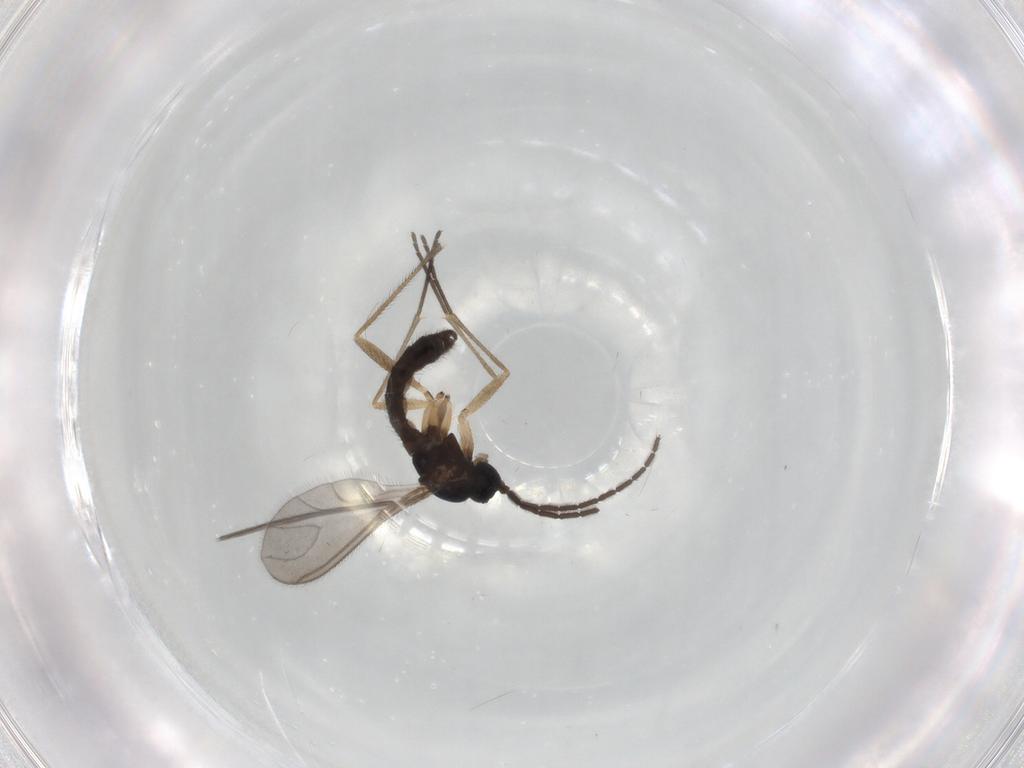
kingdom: Animalia
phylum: Arthropoda
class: Insecta
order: Diptera
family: Sciaridae
